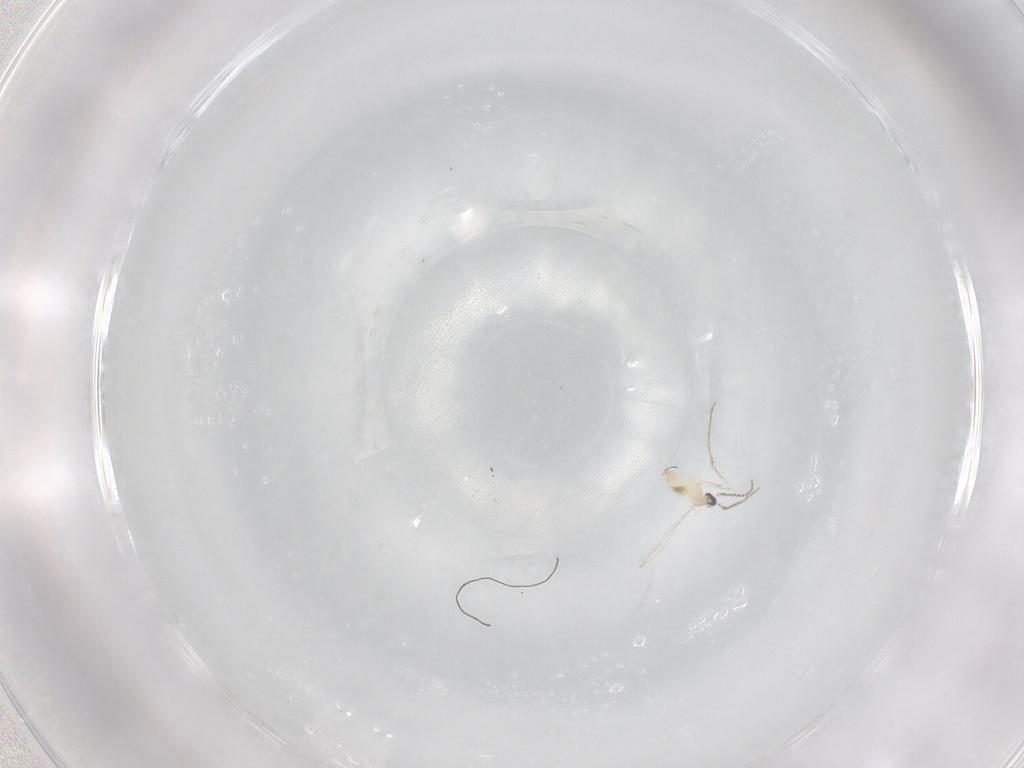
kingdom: Animalia
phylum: Arthropoda
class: Insecta
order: Diptera
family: Cecidomyiidae
